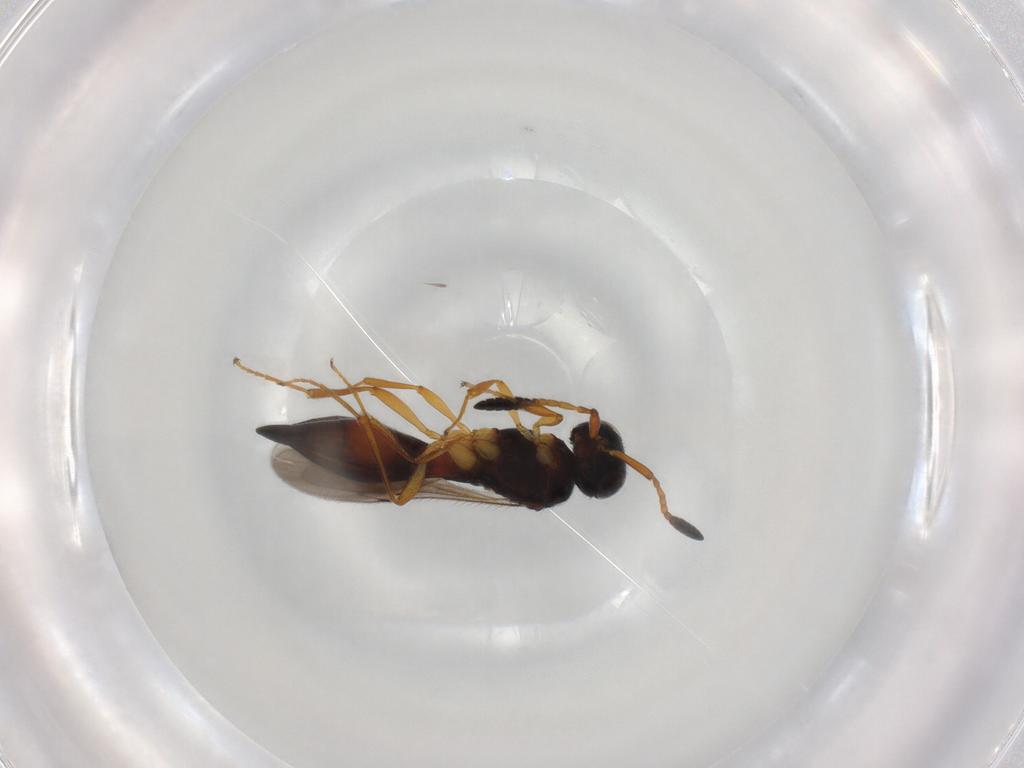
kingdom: Animalia
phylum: Arthropoda
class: Insecta
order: Hymenoptera
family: Scelionidae
